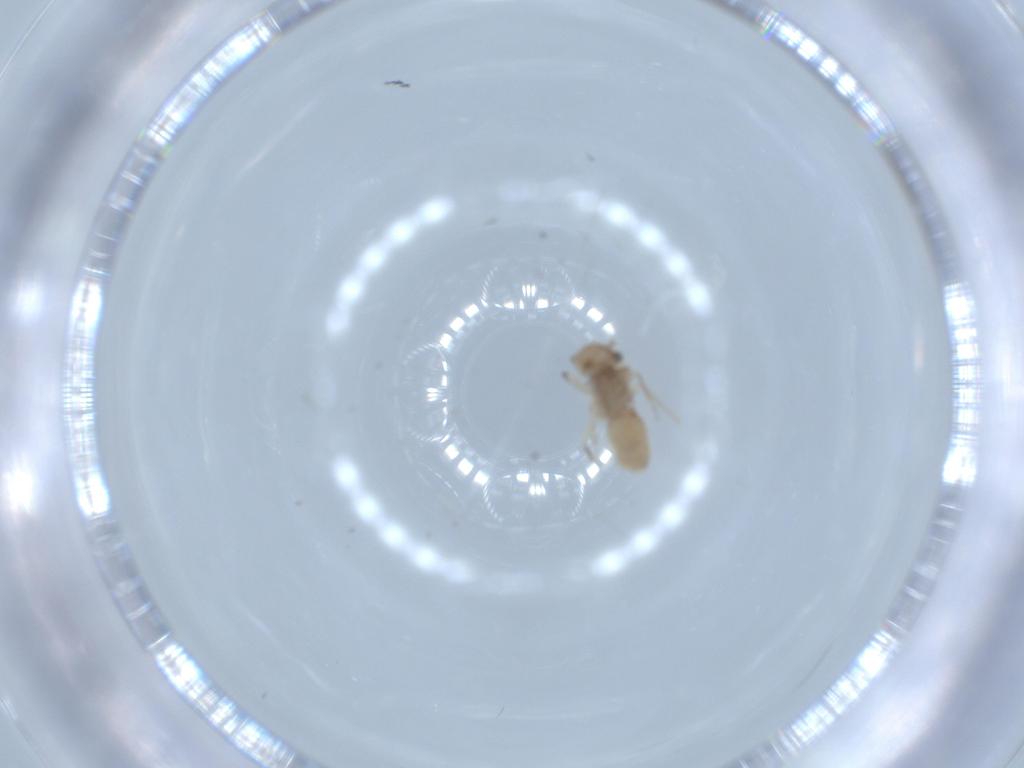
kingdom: Animalia
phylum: Arthropoda
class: Insecta
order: Psocodea
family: Ectopsocidae
